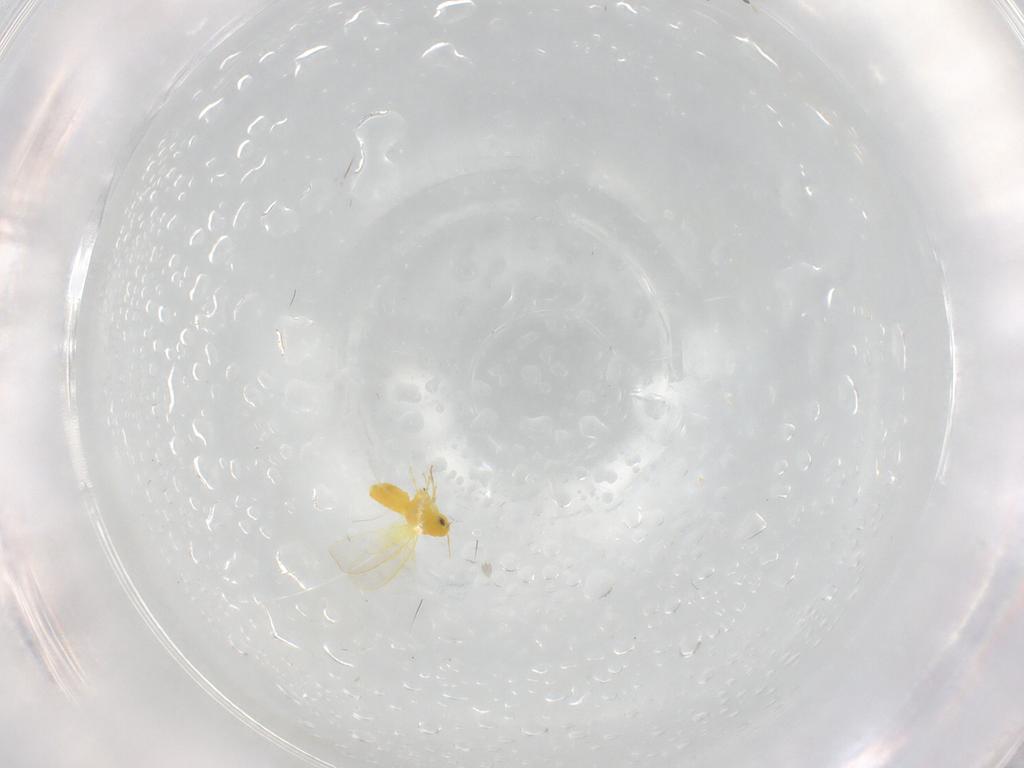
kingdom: Animalia
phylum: Arthropoda
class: Insecta
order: Hemiptera
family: Aleyrodidae
